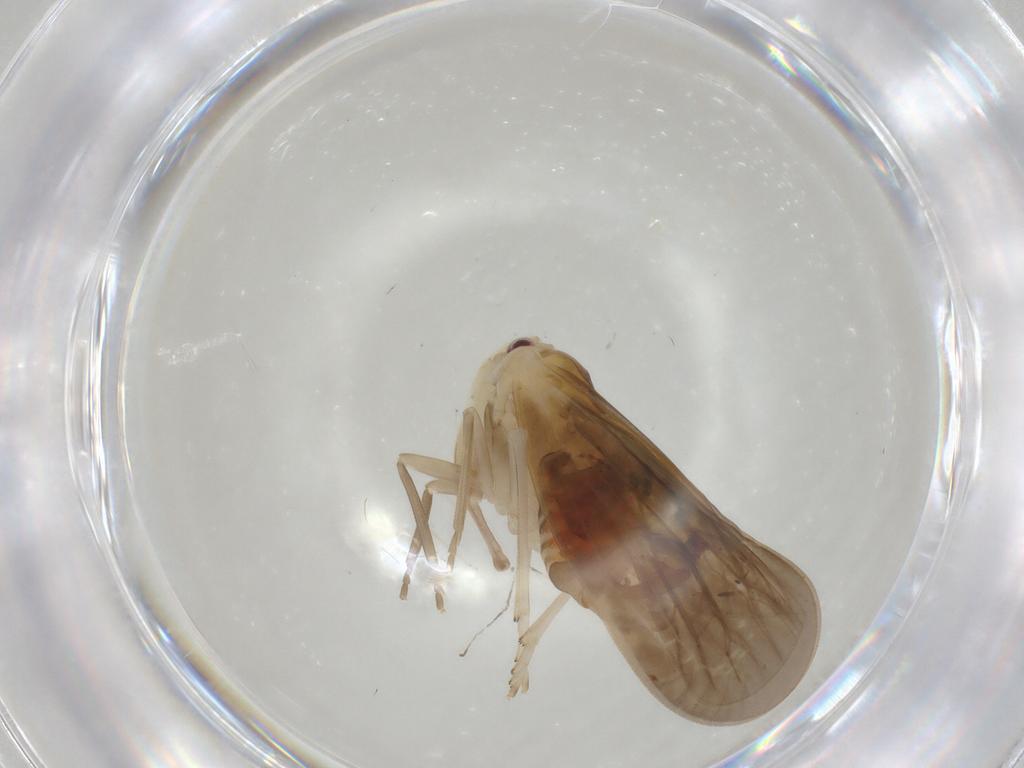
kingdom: Animalia
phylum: Arthropoda
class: Insecta
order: Hemiptera
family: Derbidae
